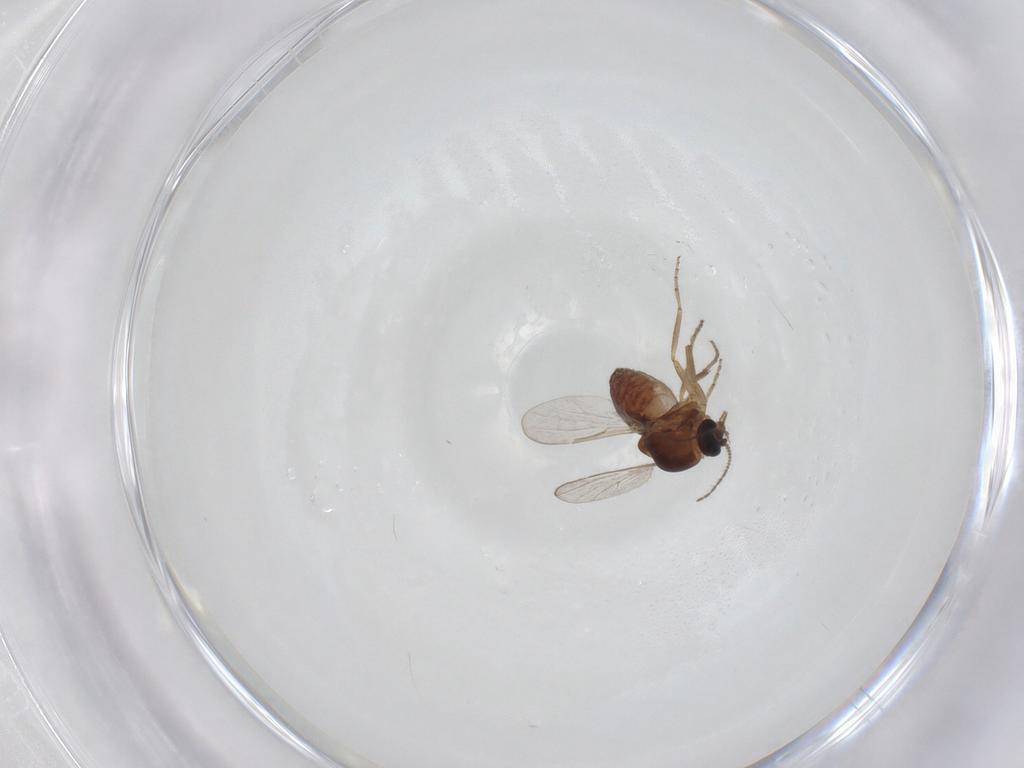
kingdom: Animalia
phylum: Arthropoda
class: Insecta
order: Diptera
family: Ceratopogonidae
